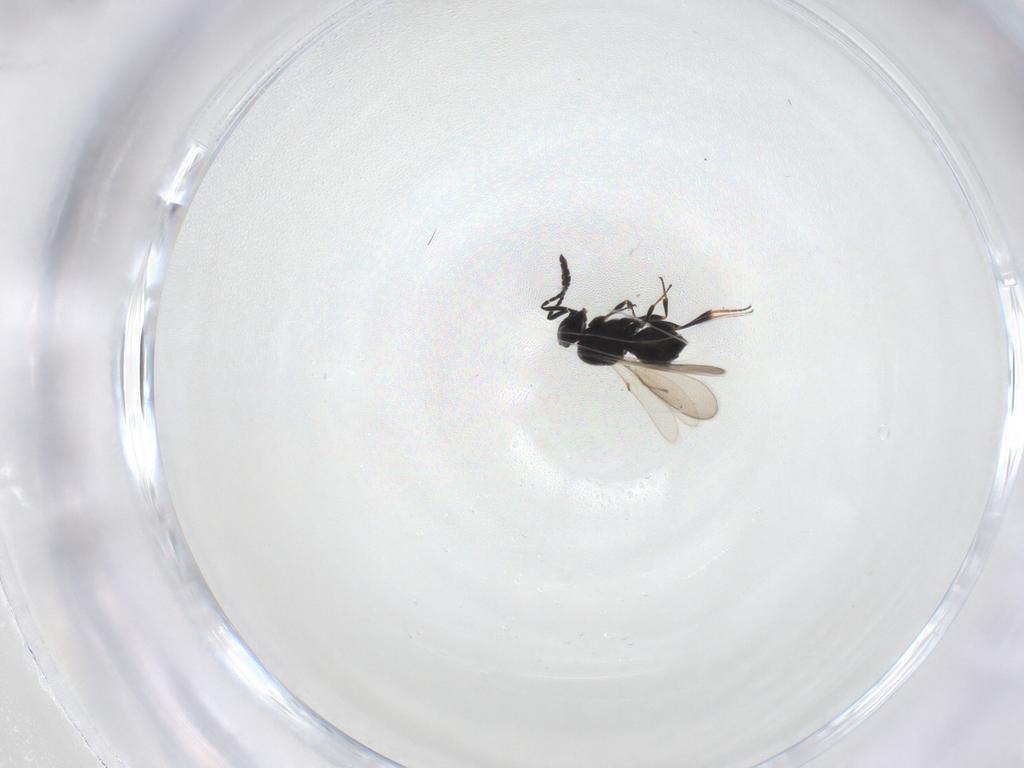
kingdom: Animalia
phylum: Arthropoda
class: Insecta
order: Hymenoptera
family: Scelionidae
